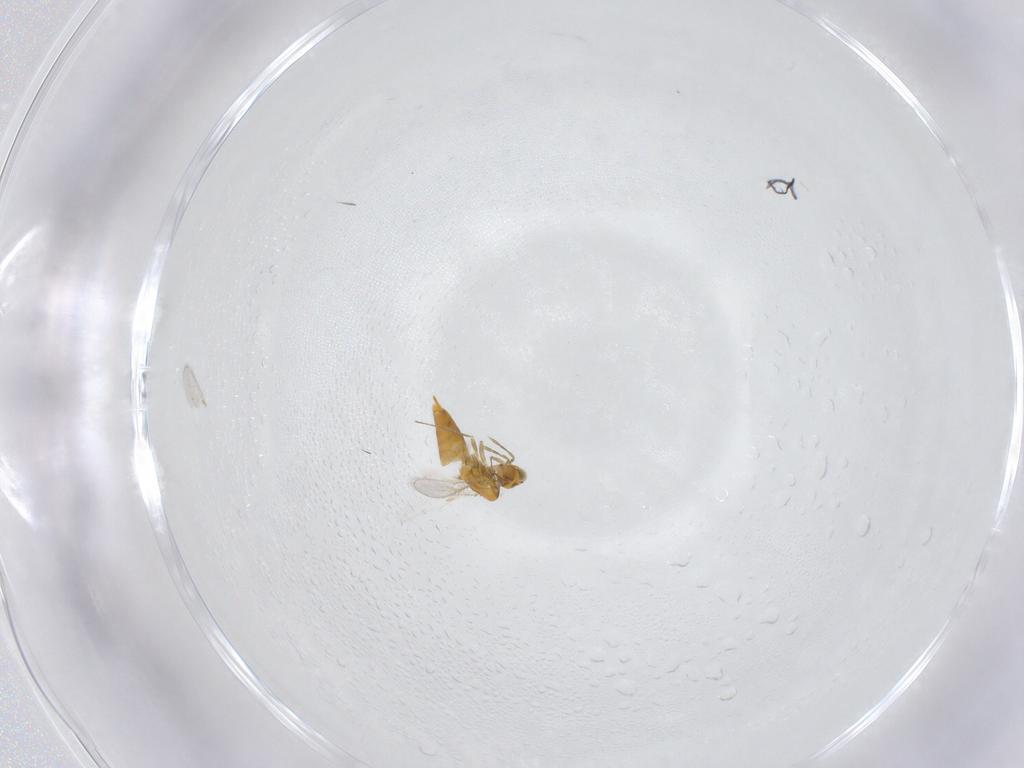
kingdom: Animalia
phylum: Arthropoda
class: Insecta
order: Hymenoptera
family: Aphelinidae
